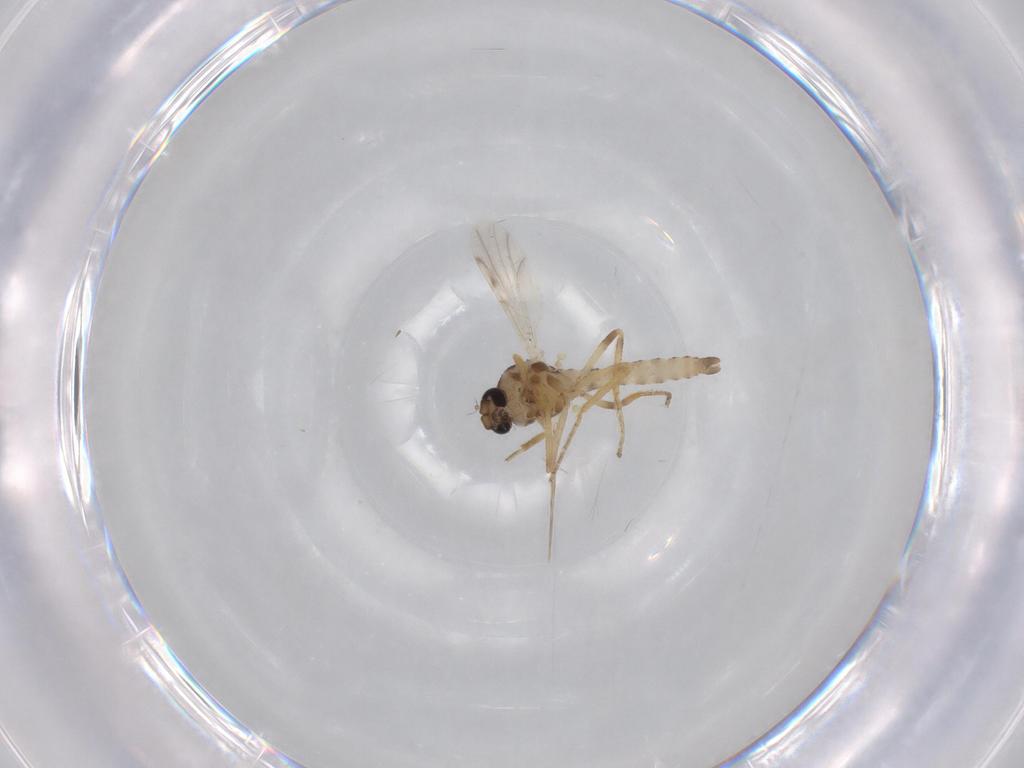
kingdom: Animalia
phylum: Arthropoda
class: Insecta
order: Diptera
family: Ceratopogonidae
